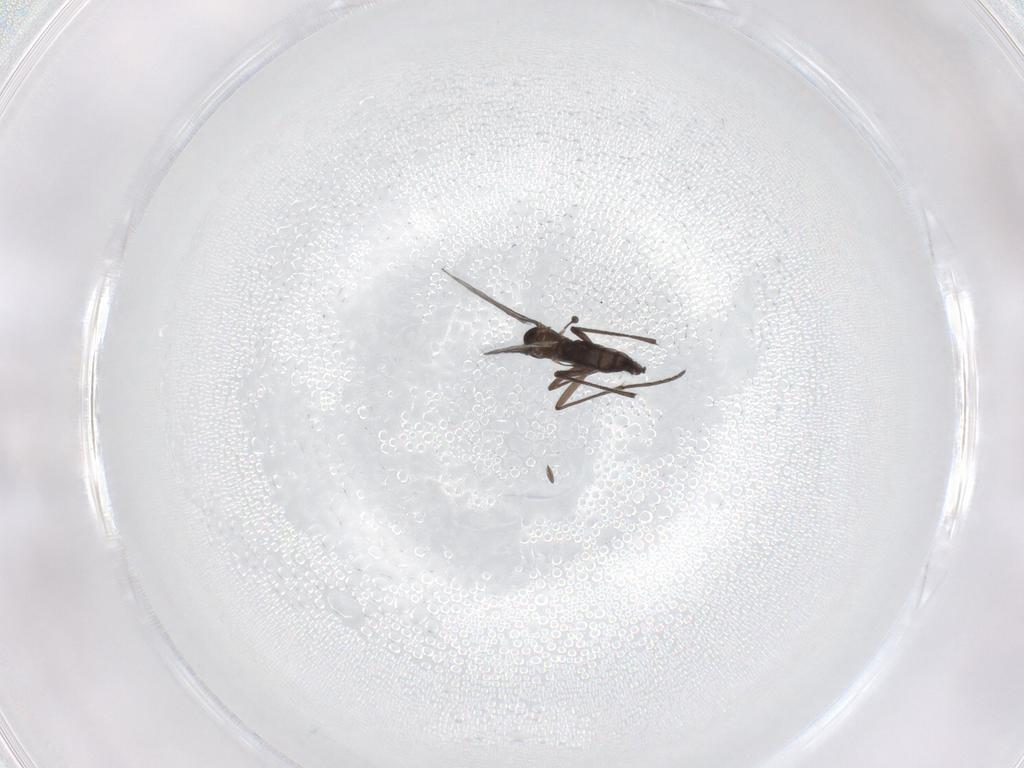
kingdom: Animalia
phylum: Arthropoda
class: Insecta
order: Diptera
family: Sciaridae
